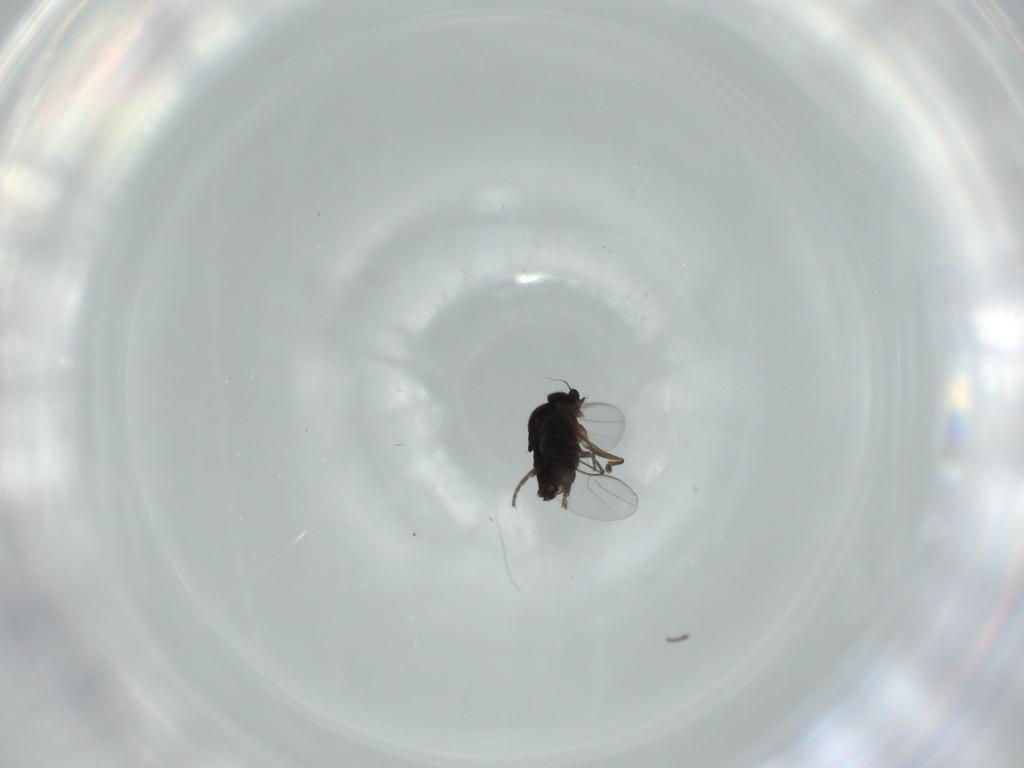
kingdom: Animalia
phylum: Arthropoda
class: Insecta
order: Diptera
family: Phoridae
